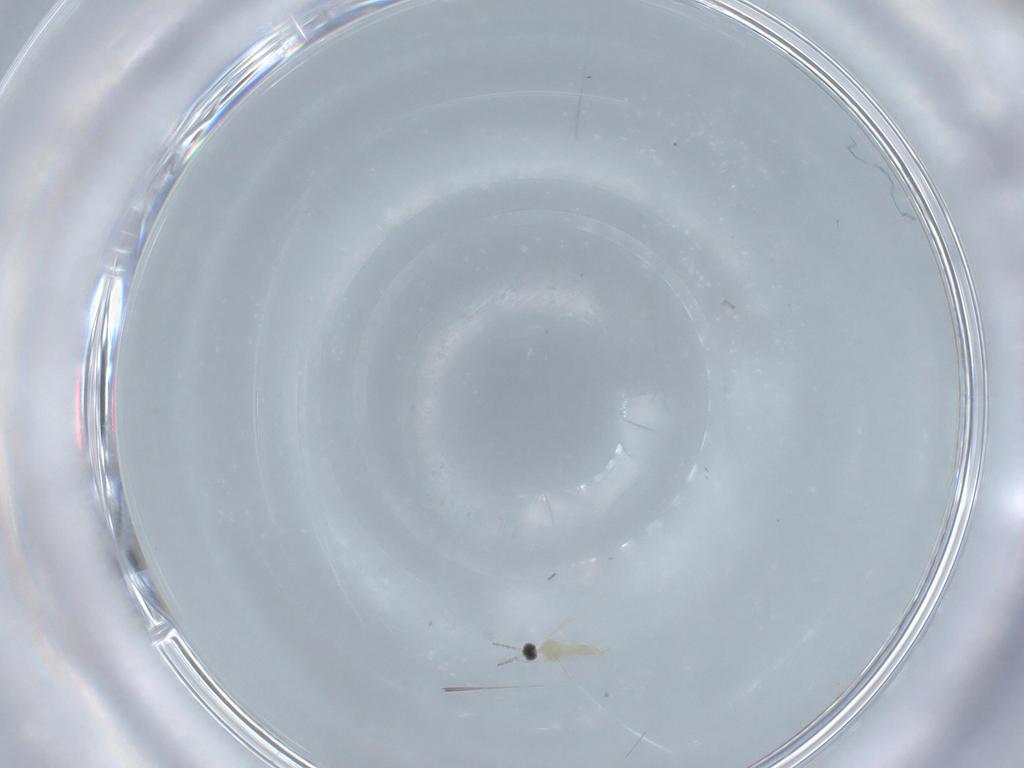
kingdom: Animalia
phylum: Arthropoda
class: Insecta
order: Diptera
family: Cecidomyiidae
